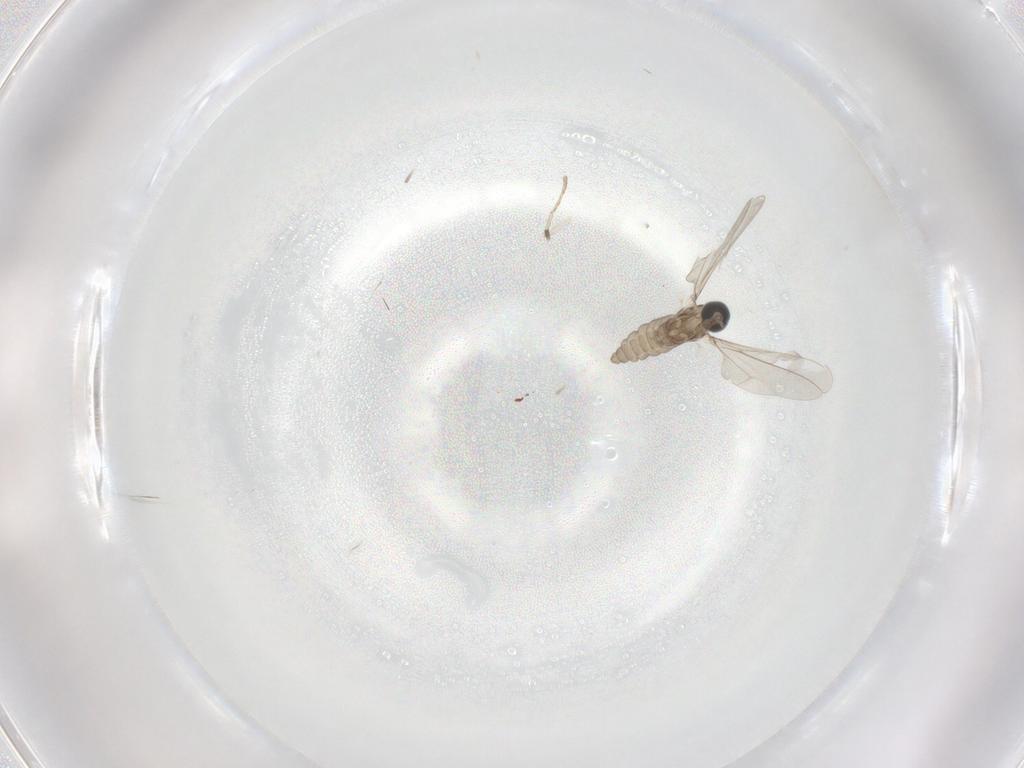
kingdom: Animalia
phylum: Arthropoda
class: Insecta
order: Diptera
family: Cecidomyiidae
